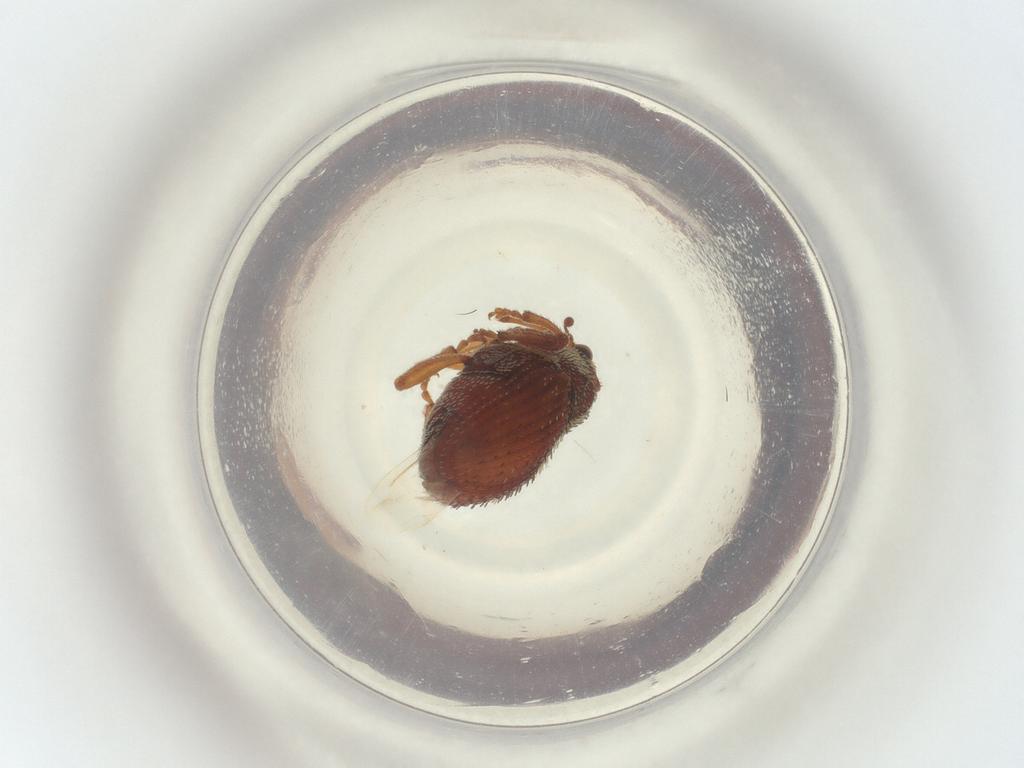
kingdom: Animalia
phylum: Arthropoda
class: Insecta
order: Coleoptera
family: Curculionidae
